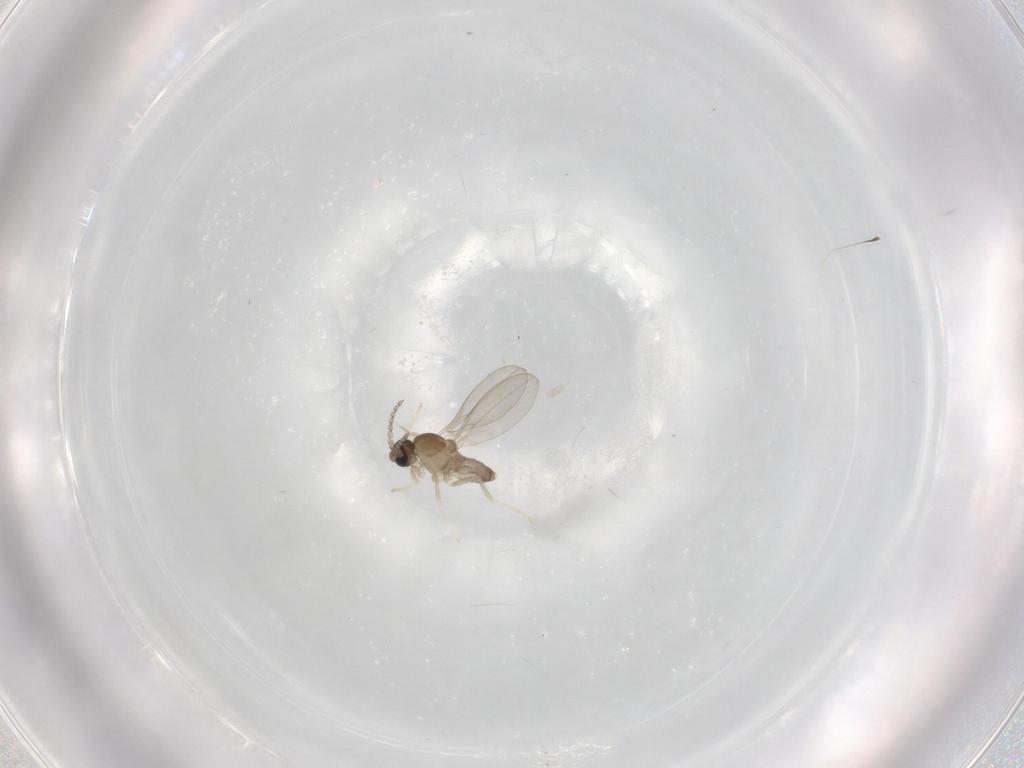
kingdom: Animalia
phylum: Arthropoda
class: Insecta
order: Diptera
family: Cecidomyiidae
